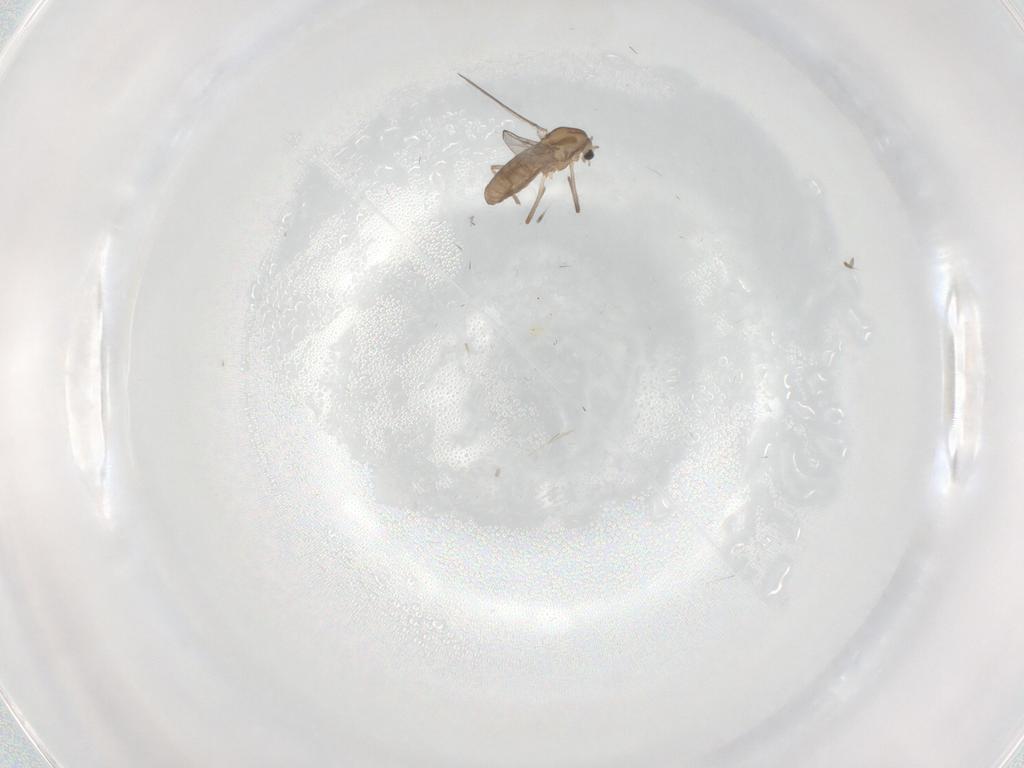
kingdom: Animalia
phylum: Arthropoda
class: Insecta
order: Diptera
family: Chironomidae
